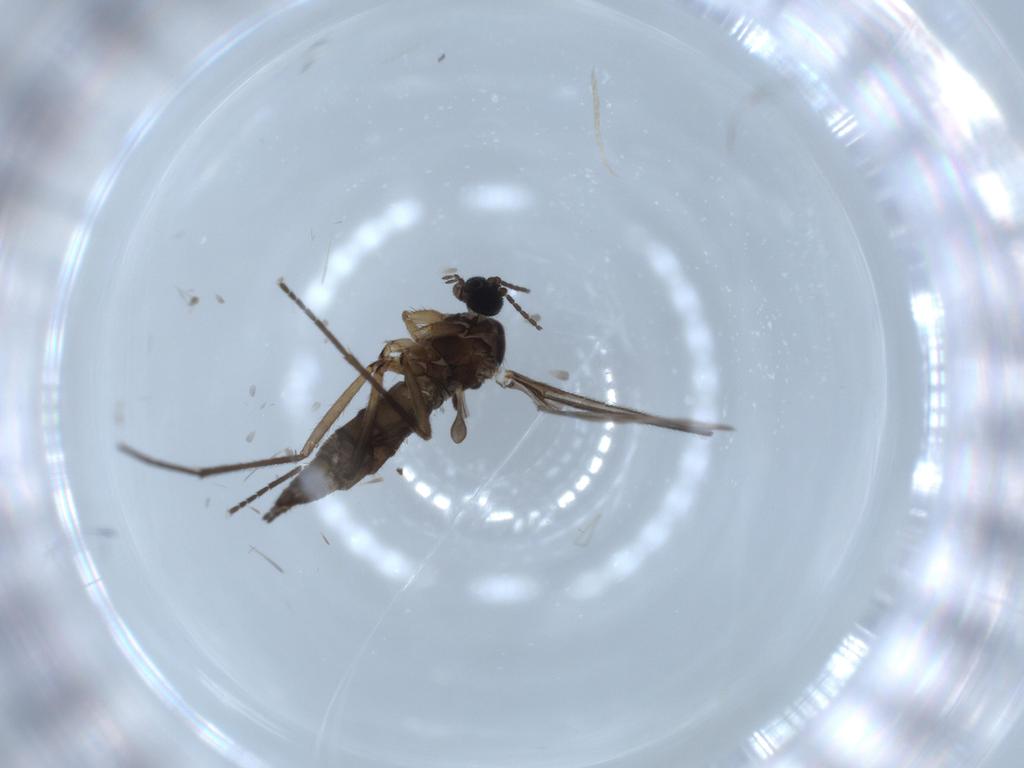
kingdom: Animalia
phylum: Arthropoda
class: Insecta
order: Diptera
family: Sciaridae
